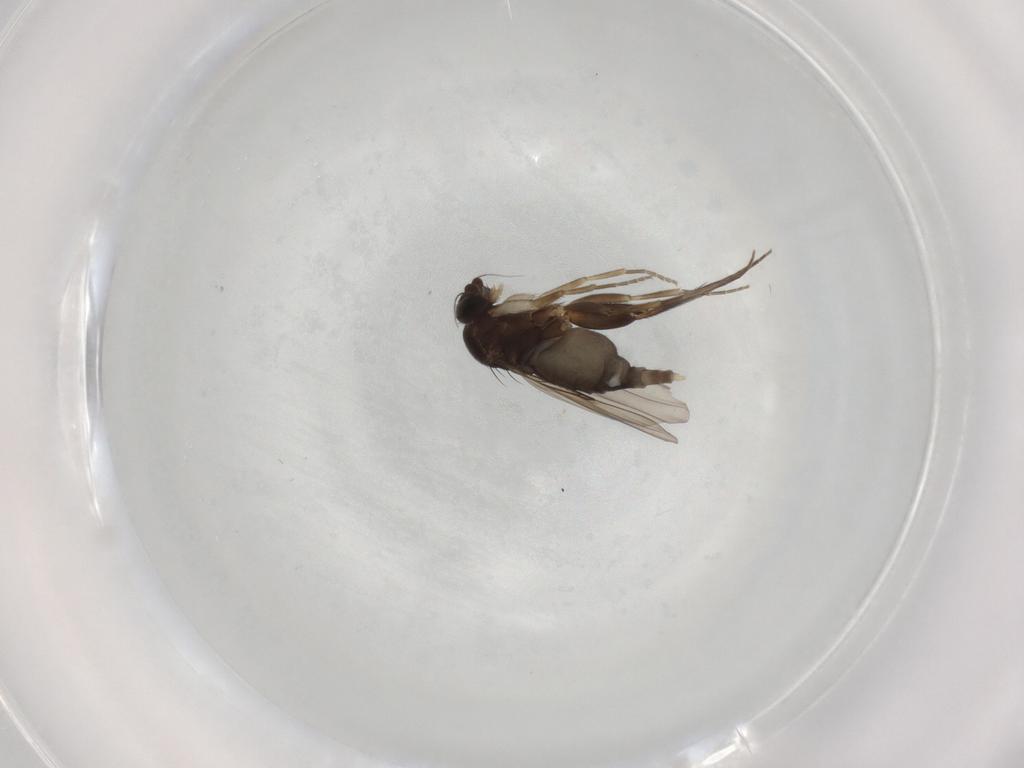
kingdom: Animalia
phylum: Arthropoda
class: Insecta
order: Diptera
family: Phoridae
